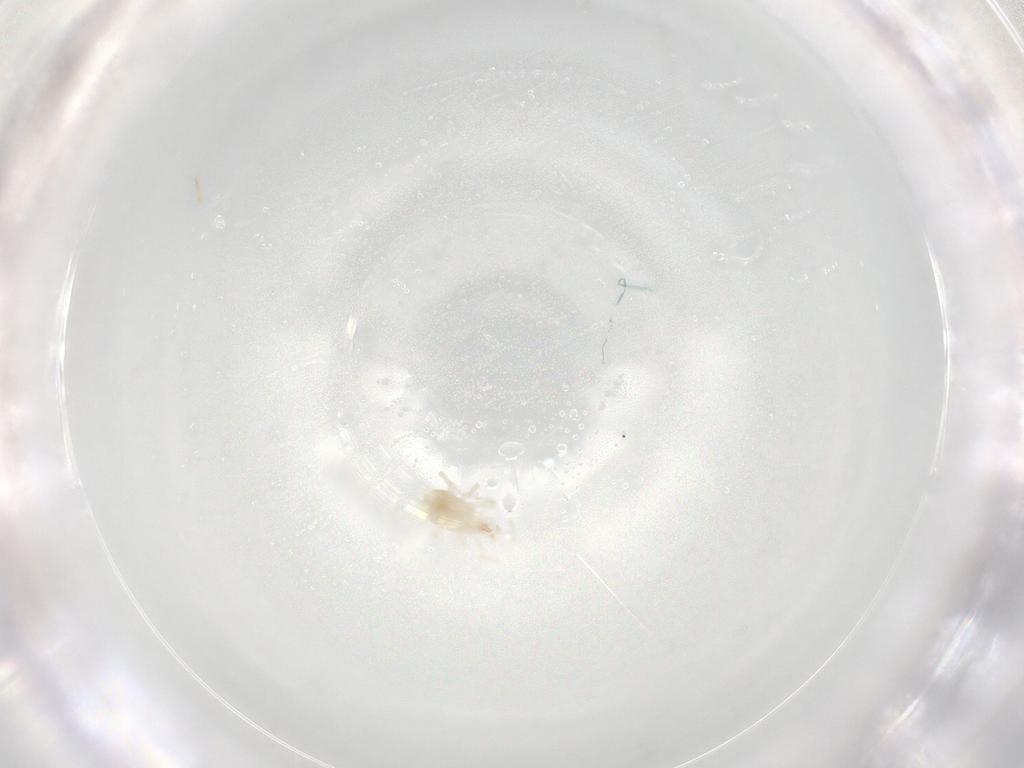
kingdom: Animalia
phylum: Arthropoda
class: Arachnida
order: Mesostigmata
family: Parasitidae
